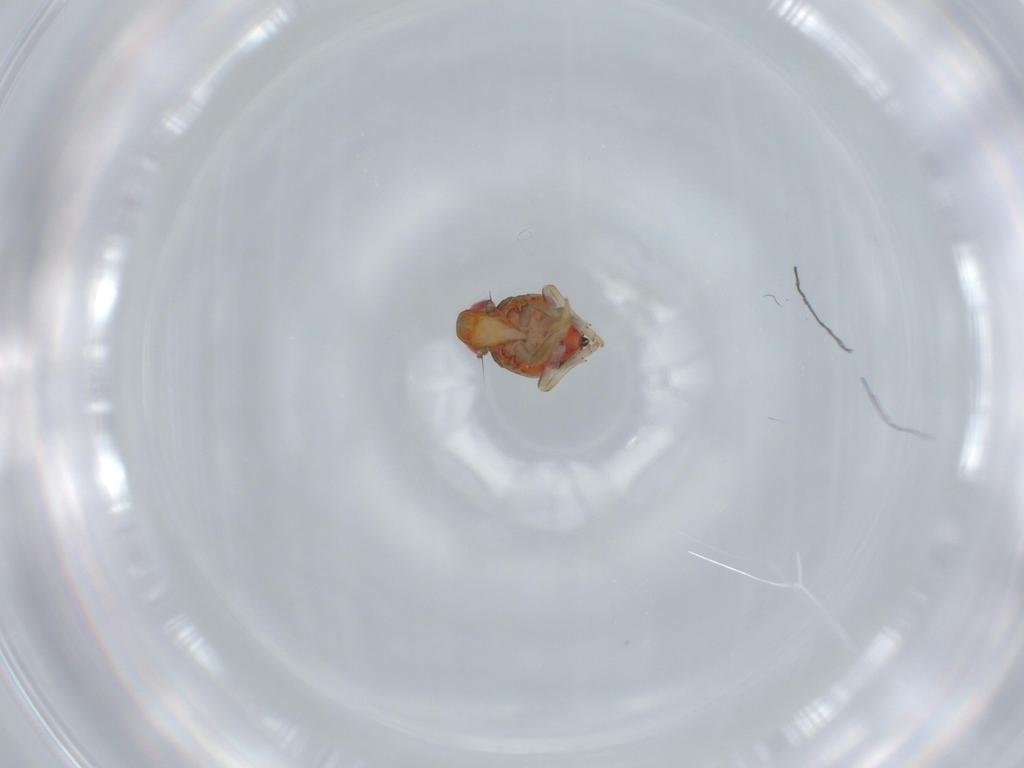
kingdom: Animalia
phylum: Arthropoda
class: Insecta
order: Hemiptera
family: Issidae
